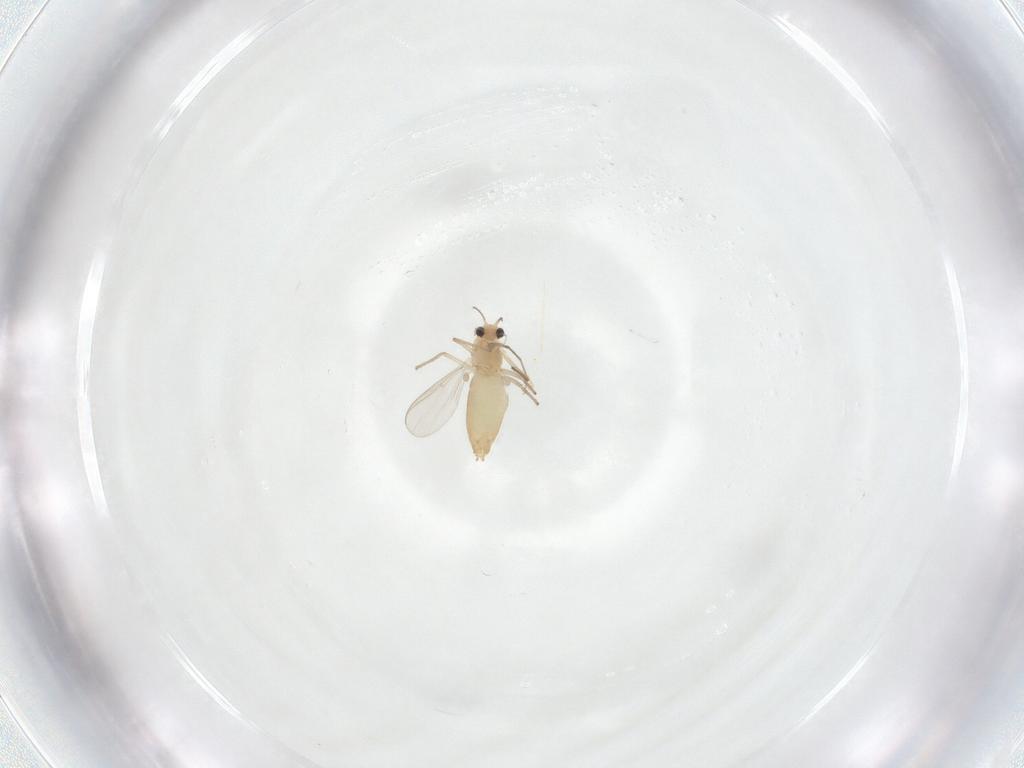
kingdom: Animalia
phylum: Arthropoda
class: Insecta
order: Diptera
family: Chironomidae
